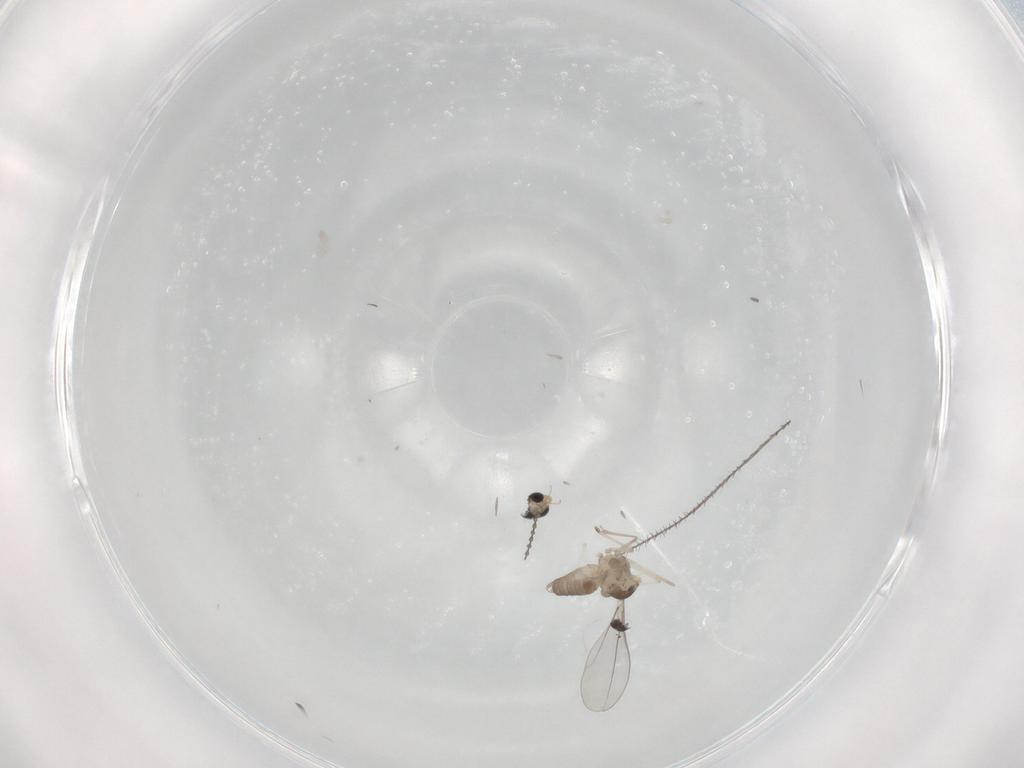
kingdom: Animalia
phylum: Arthropoda
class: Insecta
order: Diptera
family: Cecidomyiidae
